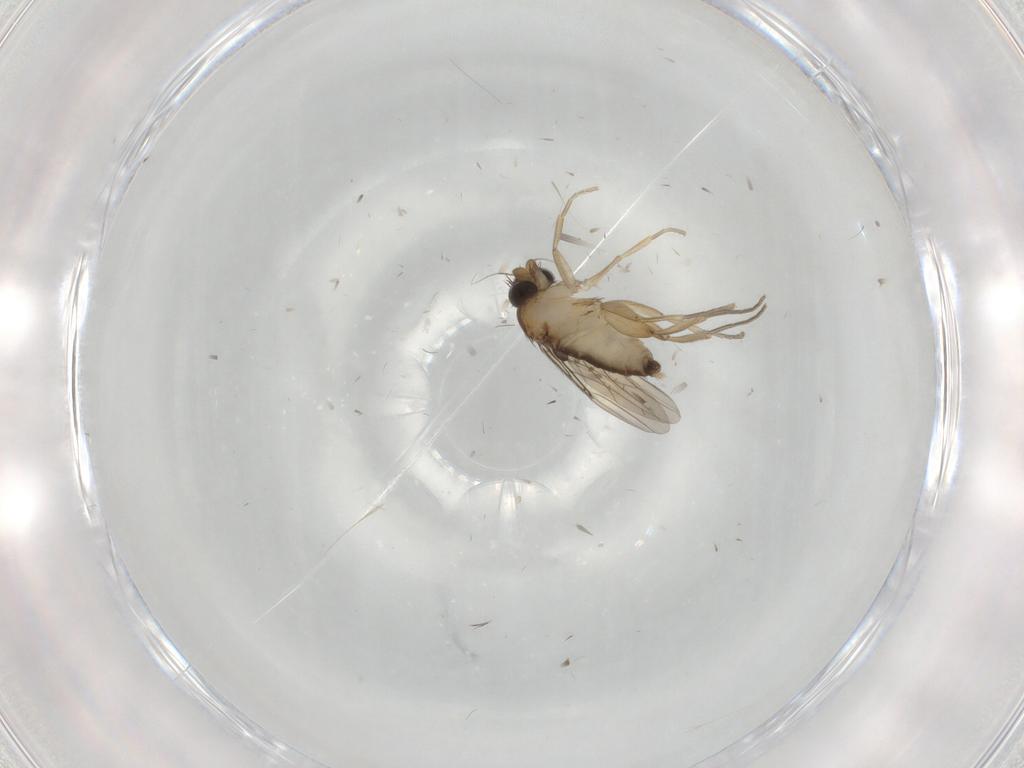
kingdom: Animalia
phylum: Arthropoda
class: Insecta
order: Diptera
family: Phoridae
